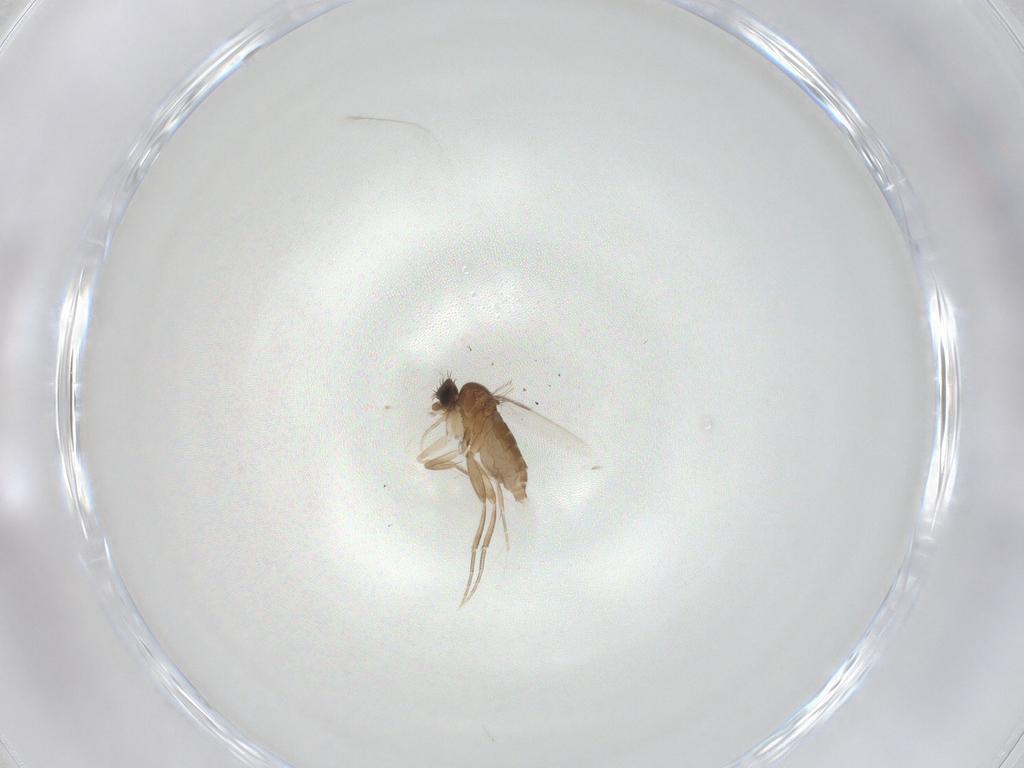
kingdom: Animalia
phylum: Arthropoda
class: Insecta
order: Diptera
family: Phoridae
